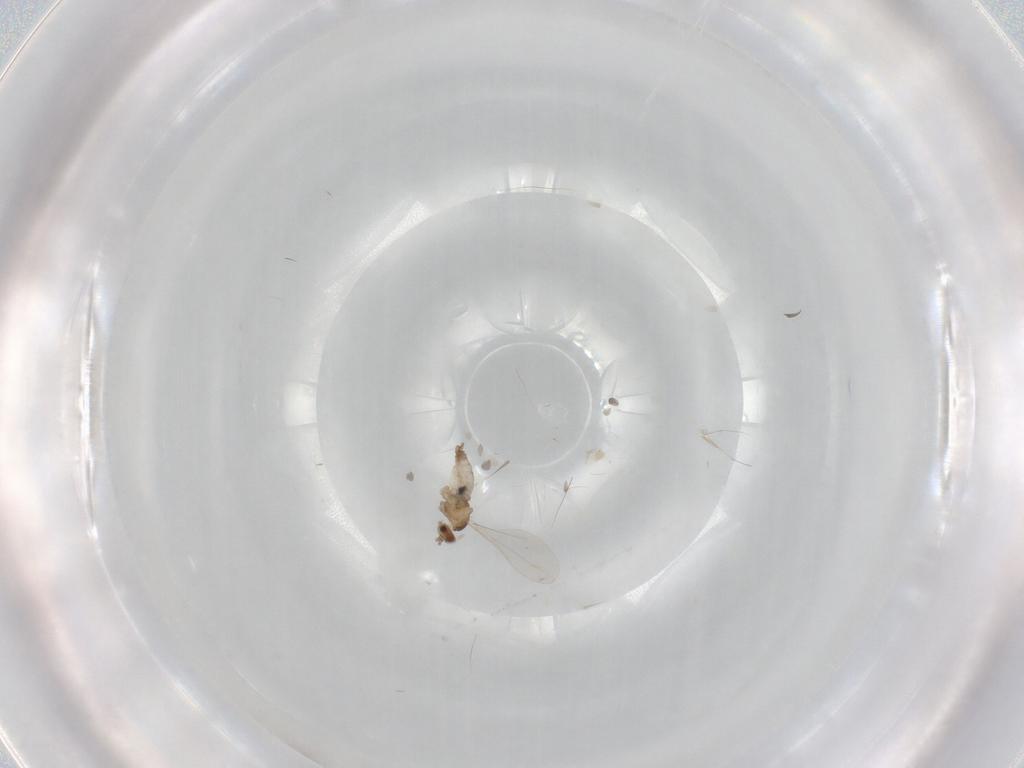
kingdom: Animalia
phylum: Arthropoda
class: Insecta
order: Diptera
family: Cecidomyiidae
